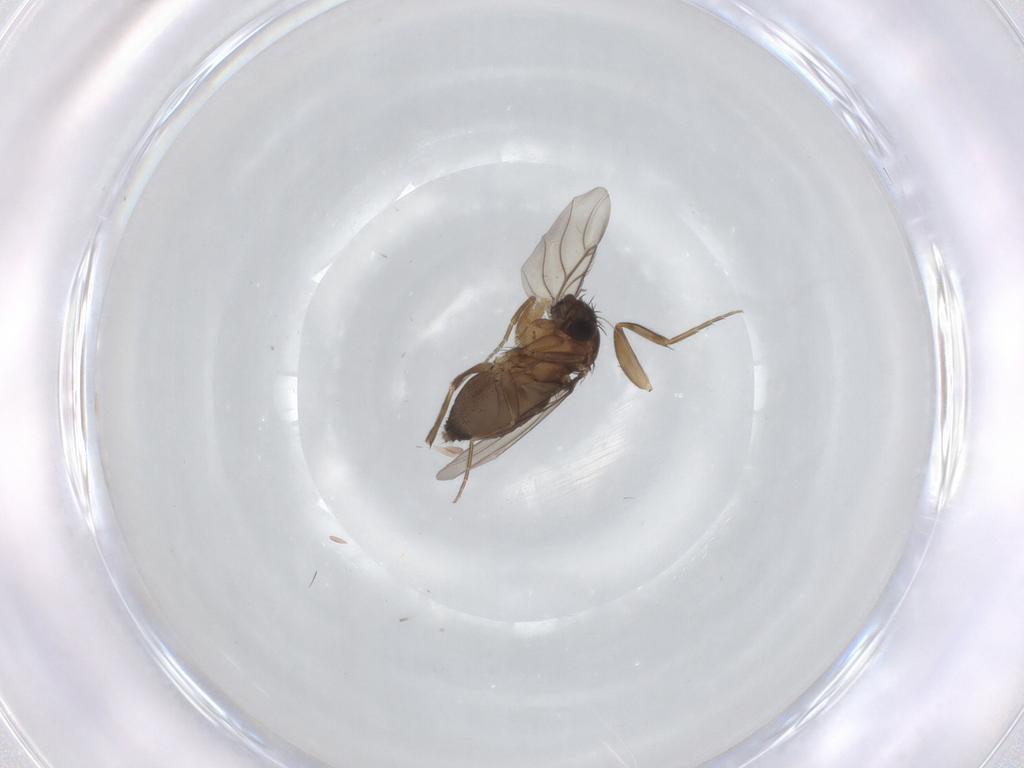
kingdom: Animalia
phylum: Arthropoda
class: Insecta
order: Diptera
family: Phoridae
